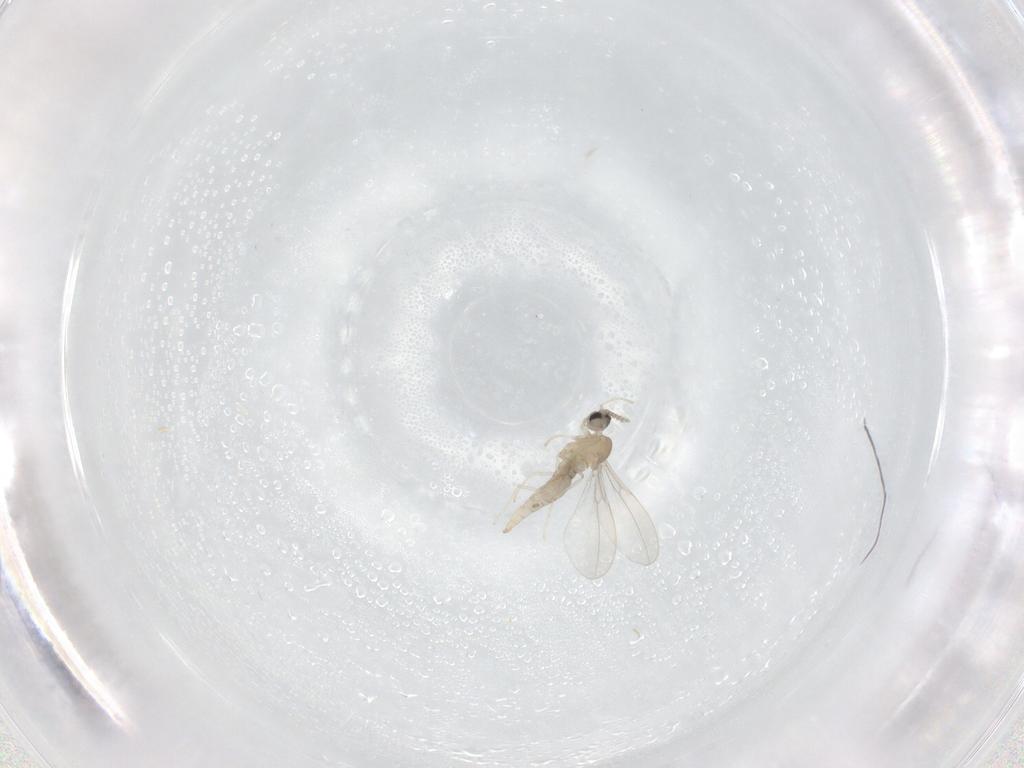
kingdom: Animalia
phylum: Arthropoda
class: Insecta
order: Diptera
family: Cecidomyiidae
